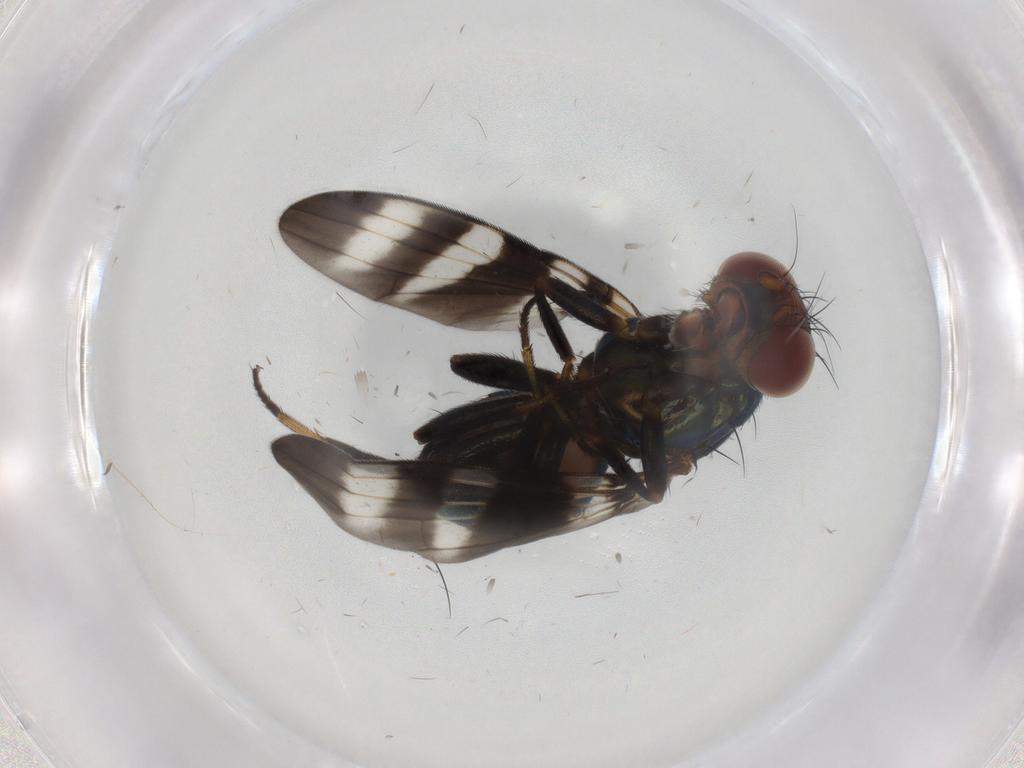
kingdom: Animalia
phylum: Arthropoda
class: Insecta
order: Diptera
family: Ulidiidae
